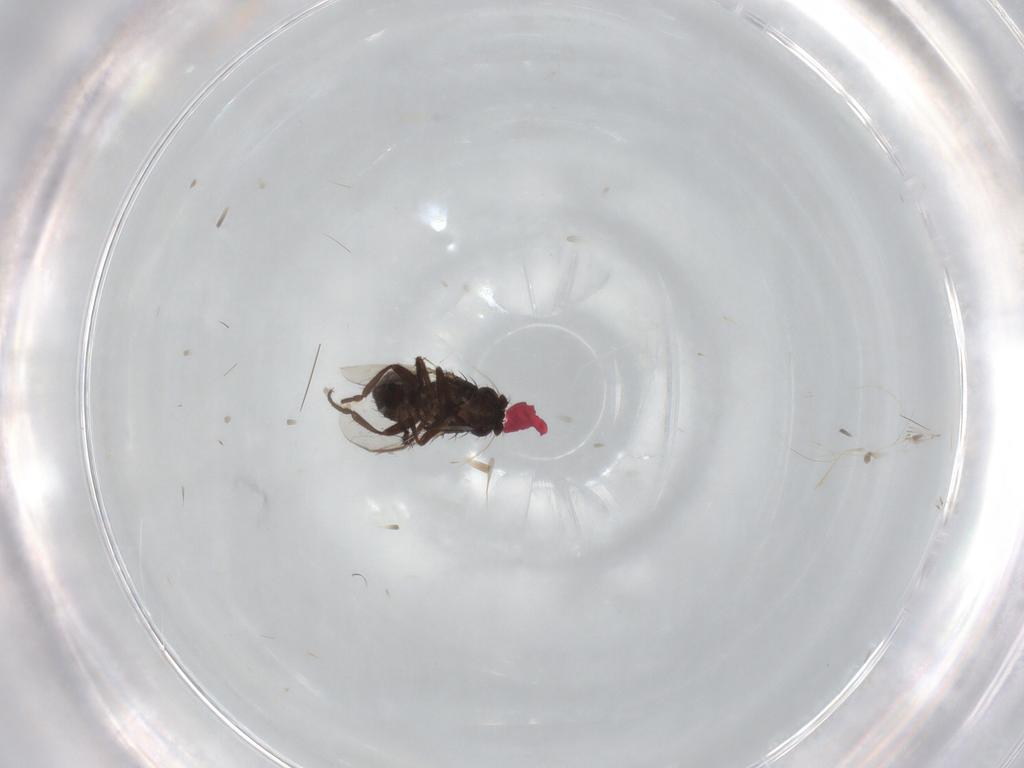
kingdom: Animalia
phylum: Arthropoda
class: Insecta
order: Diptera
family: Sphaeroceridae
